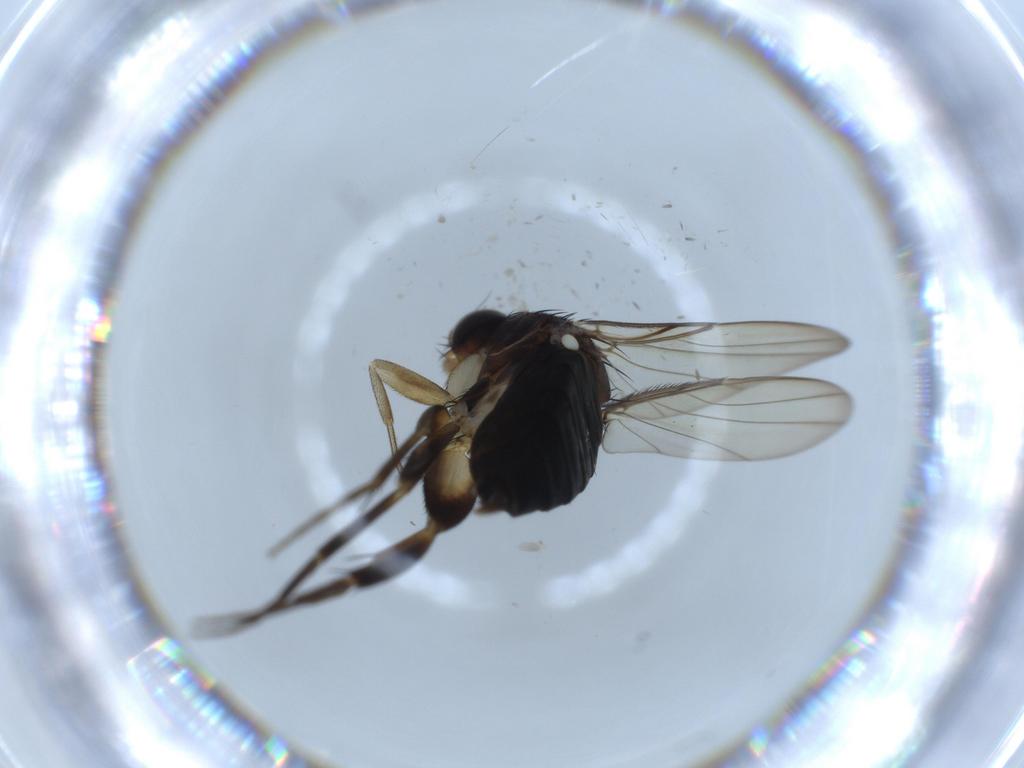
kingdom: Animalia
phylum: Arthropoda
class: Insecta
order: Diptera
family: Lauxaniidae
